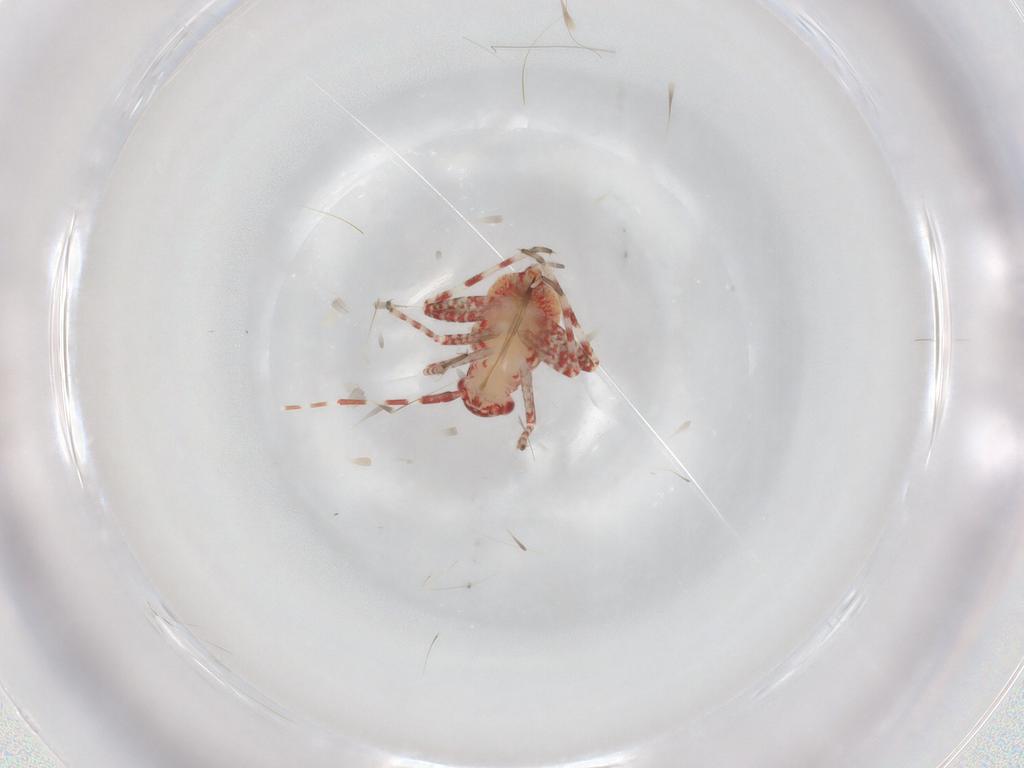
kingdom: Animalia
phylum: Arthropoda
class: Insecta
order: Hemiptera
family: Miridae
